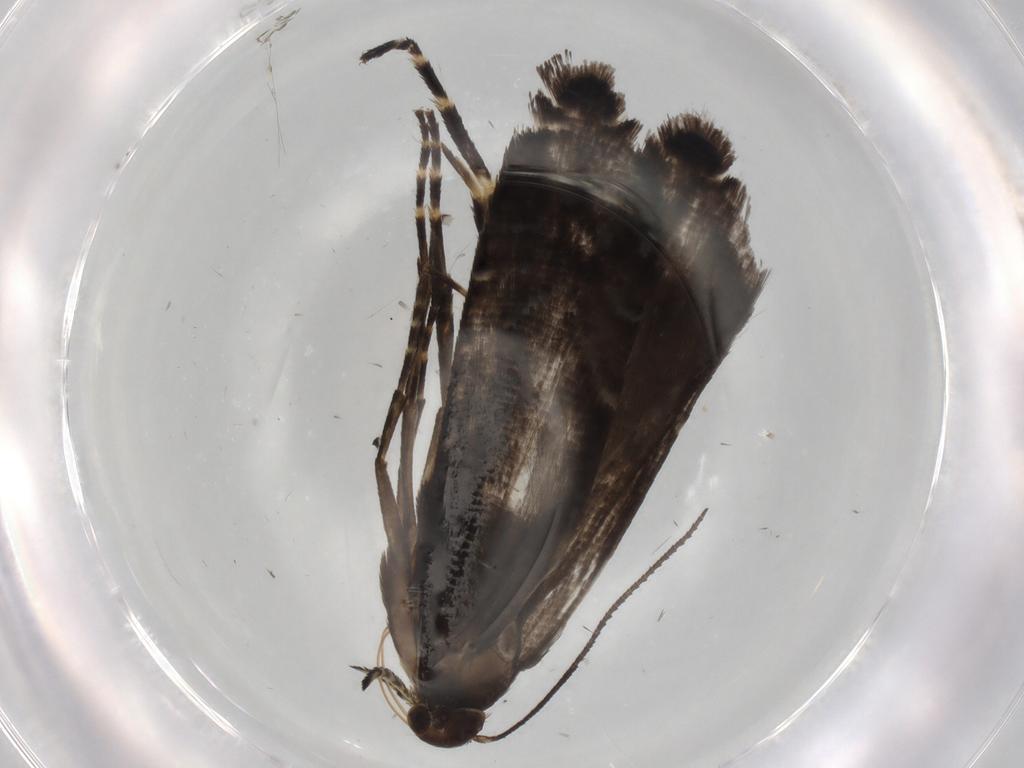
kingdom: Animalia
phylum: Arthropoda
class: Insecta
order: Lepidoptera
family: Glyphipterigidae
